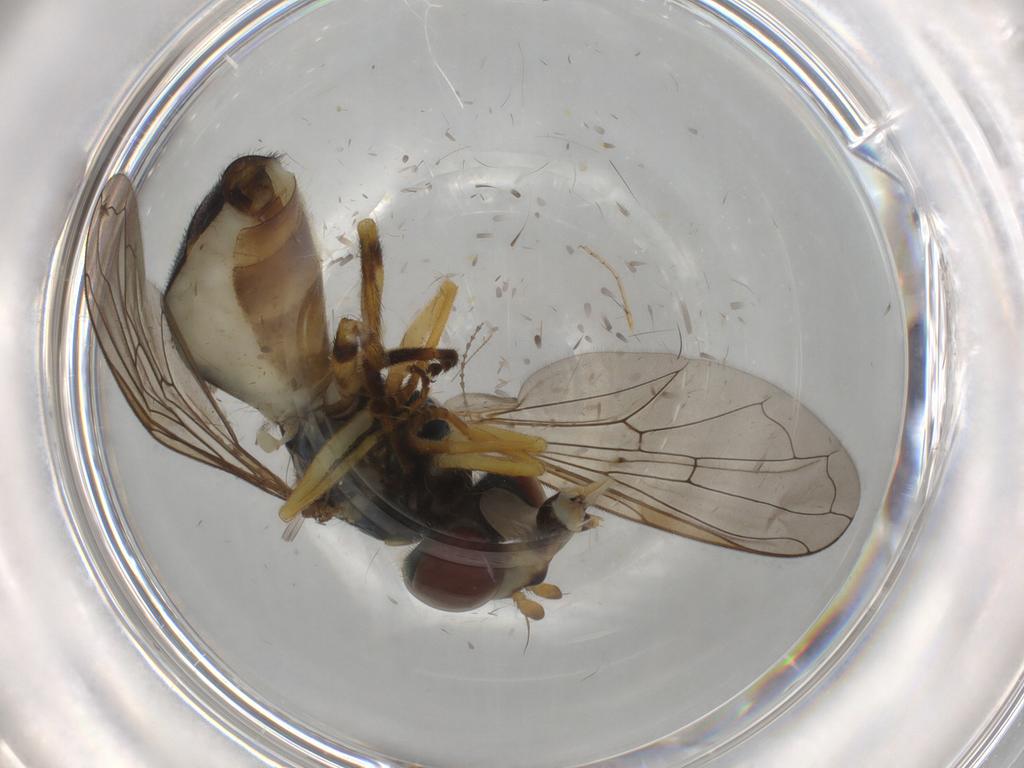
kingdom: Animalia
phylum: Arthropoda
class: Insecta
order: Diptera
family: Syrphidae
